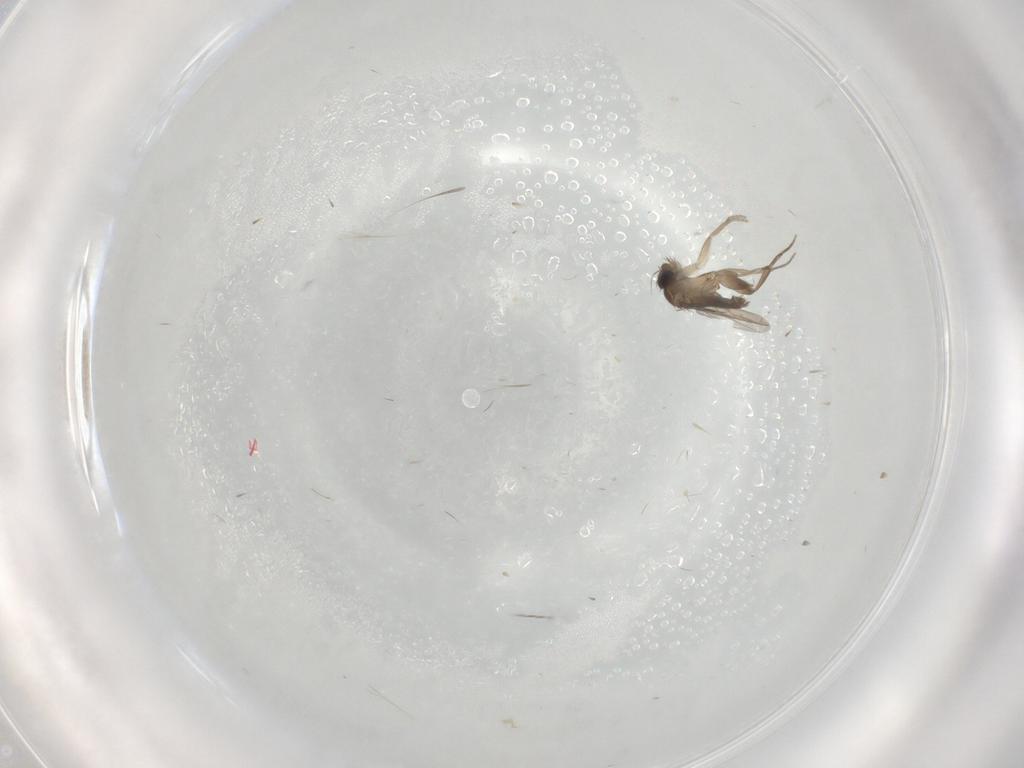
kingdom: Animalia
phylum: Arthropoda
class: Insecta
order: Diptera
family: Phoridae
